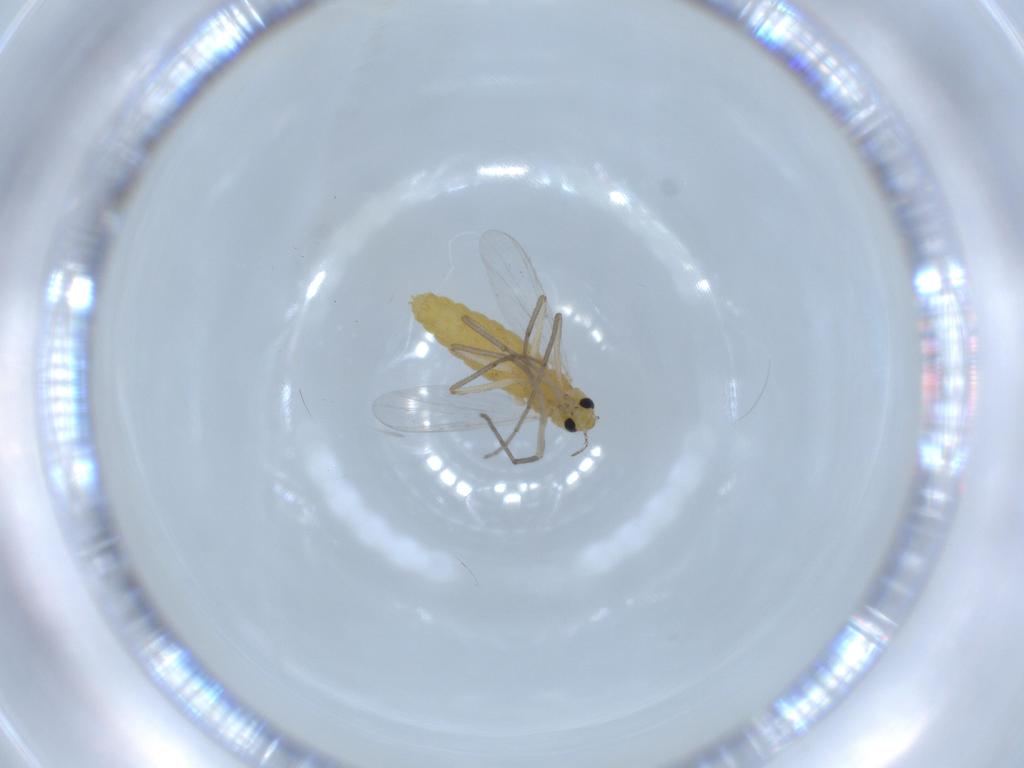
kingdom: Animalia
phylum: Arthropoda
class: Insecta
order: Diptera
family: Chironomidae
